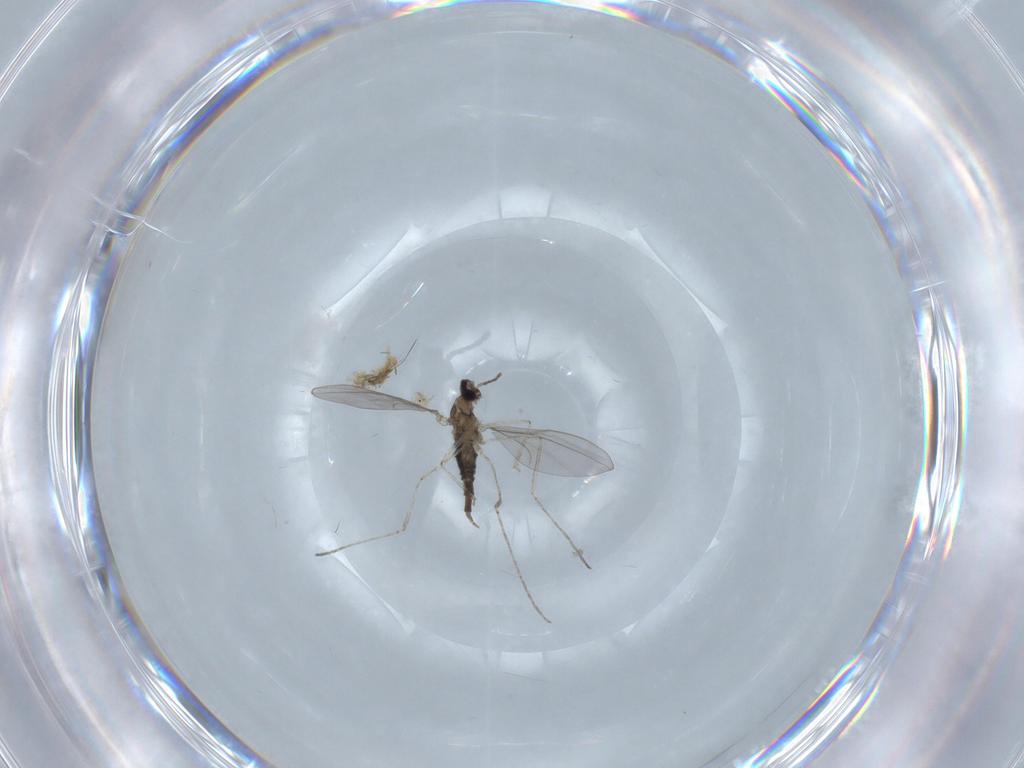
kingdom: Animalia
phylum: Arthropoda
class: Insecta
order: Diptera
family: Cecidomyiidae
